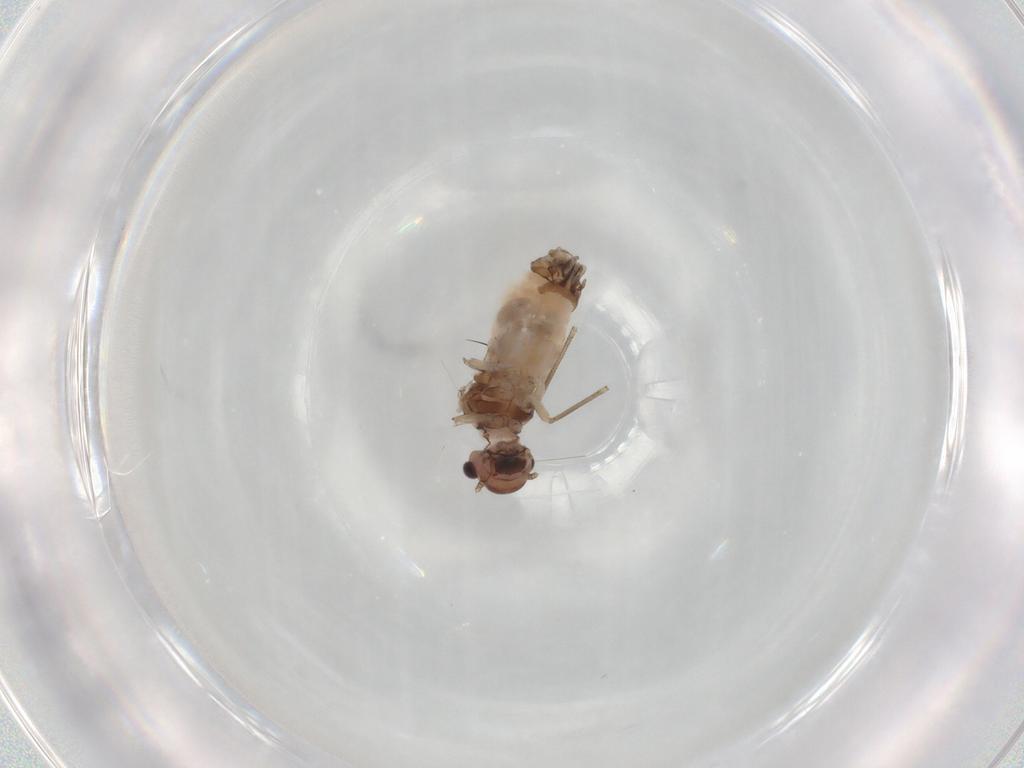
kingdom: Animalia
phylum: Arthropoda
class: Insecta
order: Psocodea
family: Peripsocidae
